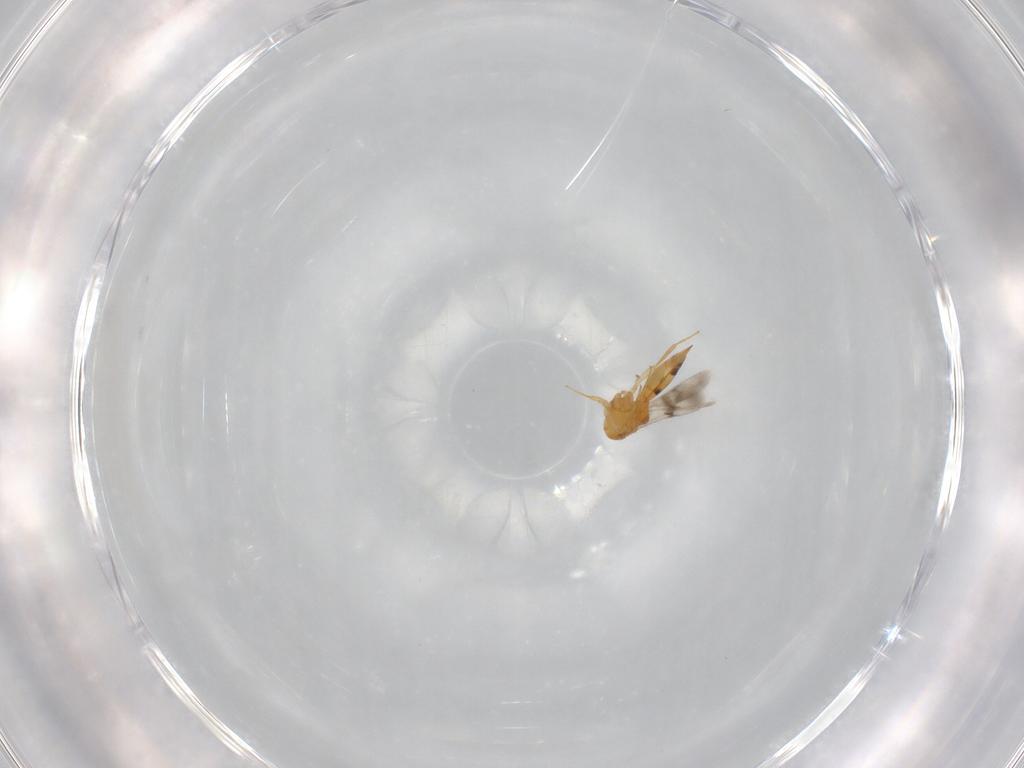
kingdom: Animalia
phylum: Arthropoda
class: Insecta
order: Hymenoptera
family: Scelionidae
